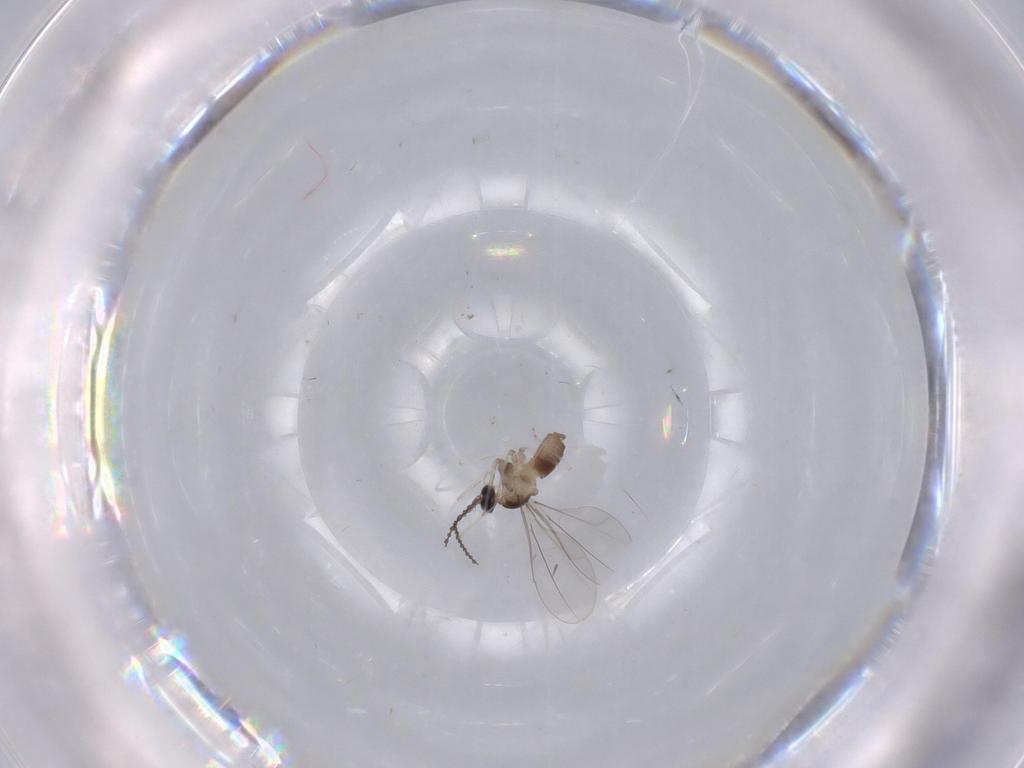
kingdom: Animalia
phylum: Arthropoda
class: Insecta
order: Diptera
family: Cecidomyiidae
